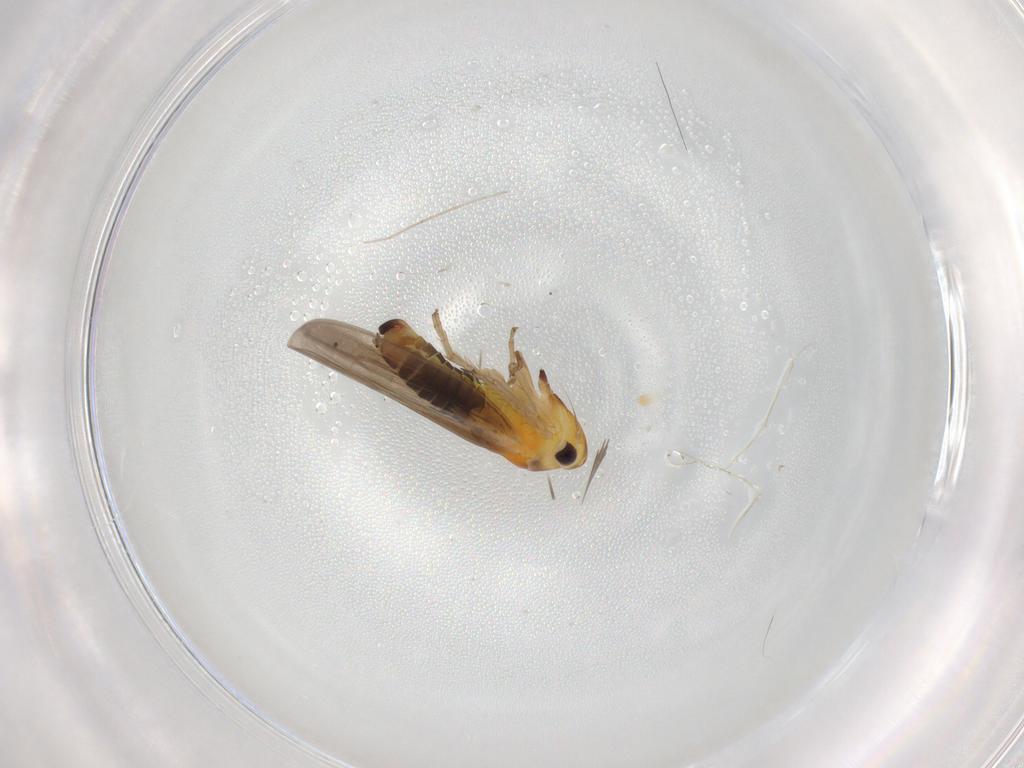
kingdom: Animalia
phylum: Arthropoda
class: Insecta
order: Hemiptera
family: Cicadellidae
